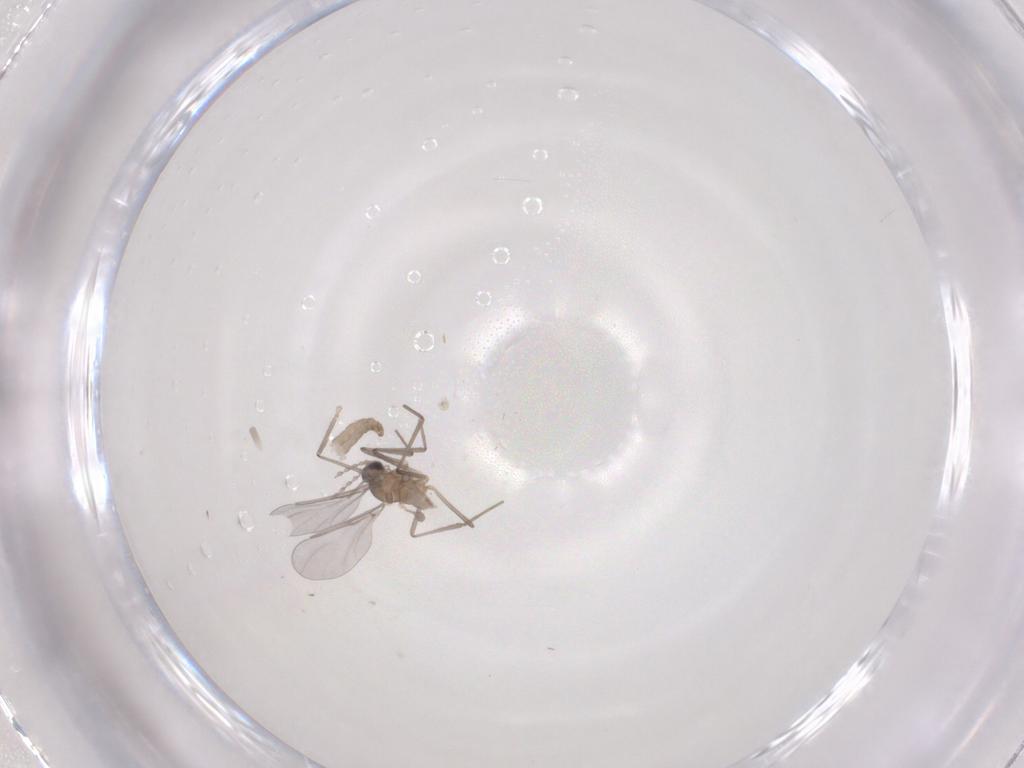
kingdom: Animalia
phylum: Arthropoda
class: Insecta
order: Diptera
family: Cecidomyiidae
